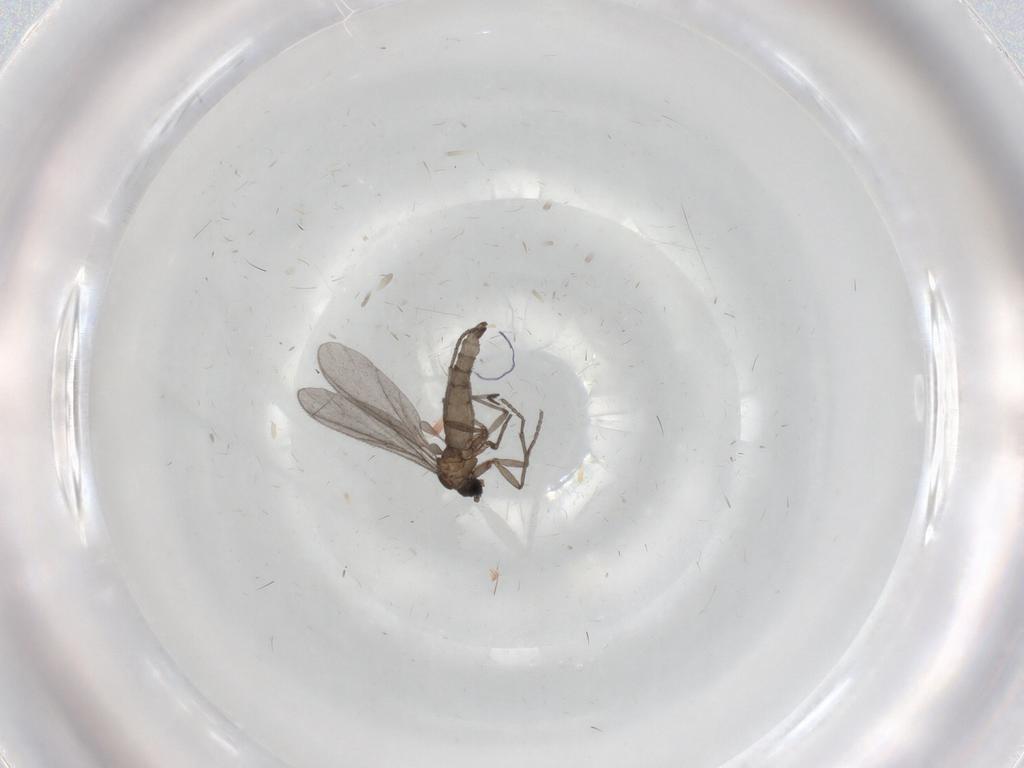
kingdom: Animalia
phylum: Arthropoda
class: Insecta
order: Diptera
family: Sciaridae
